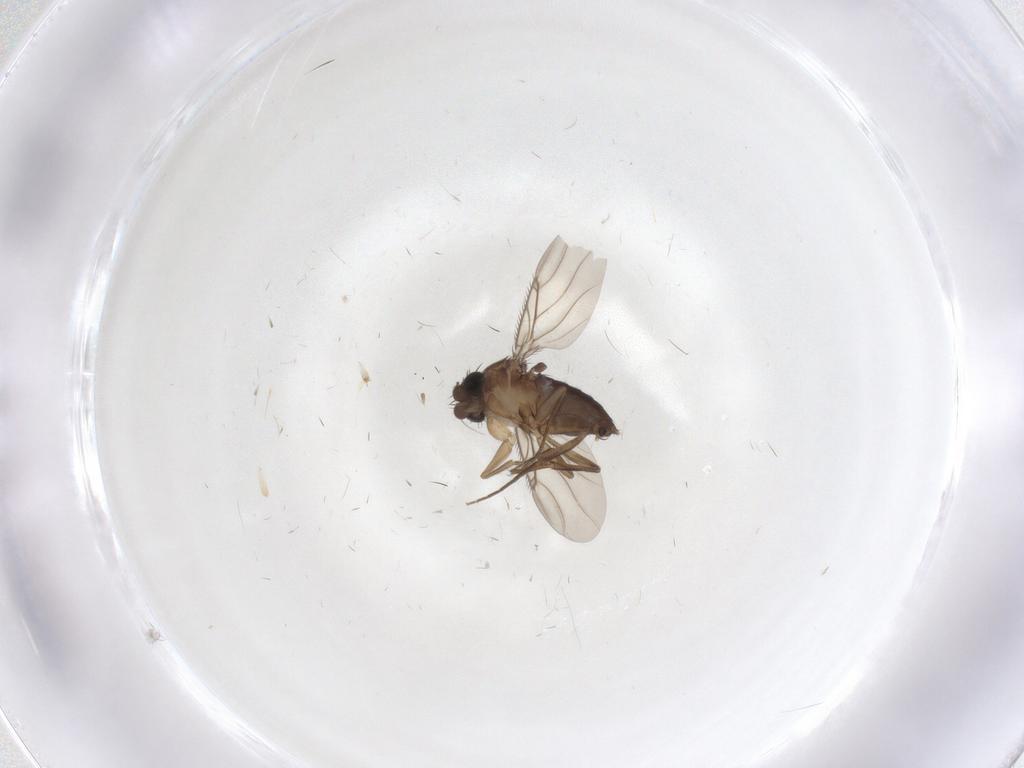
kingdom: Animalia
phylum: Arthropoda
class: Insecta
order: Diptera
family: Phoridae
